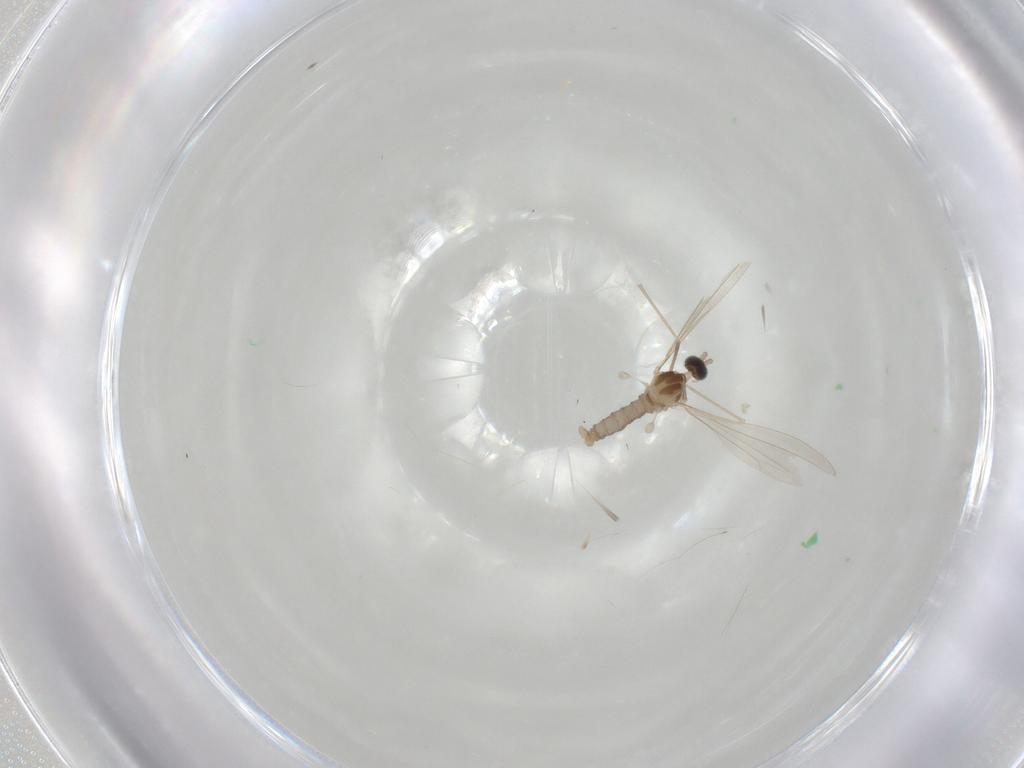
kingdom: Animalia
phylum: Arthropoda
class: Insecta
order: Diptera
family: Cecidomyiidae
